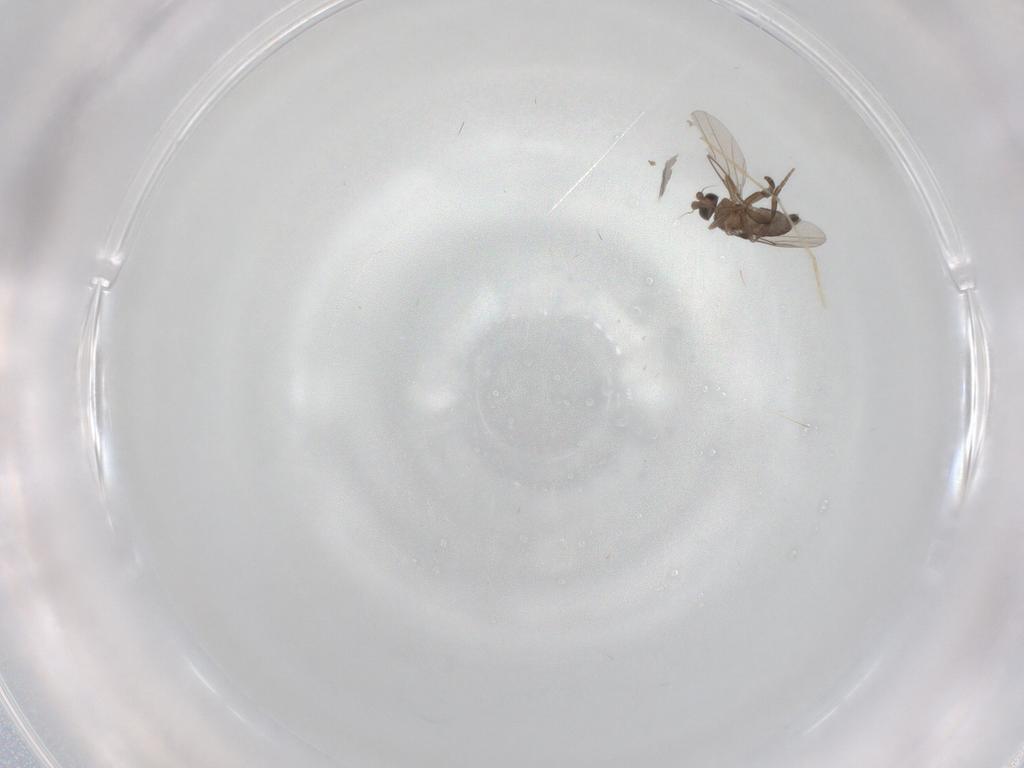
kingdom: Animalia
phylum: Arthropoda
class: Insecta
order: Diptera
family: Phoridae
